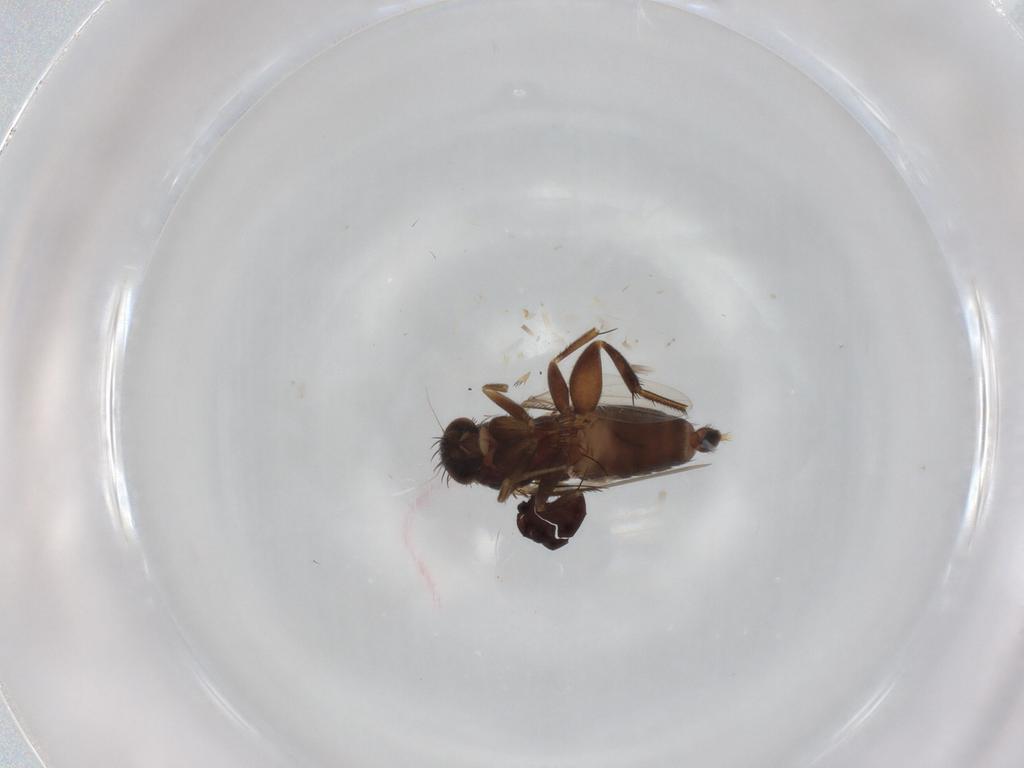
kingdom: Animalia
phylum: Arthropoda
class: Insecta
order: Diptera
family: Phoridae
